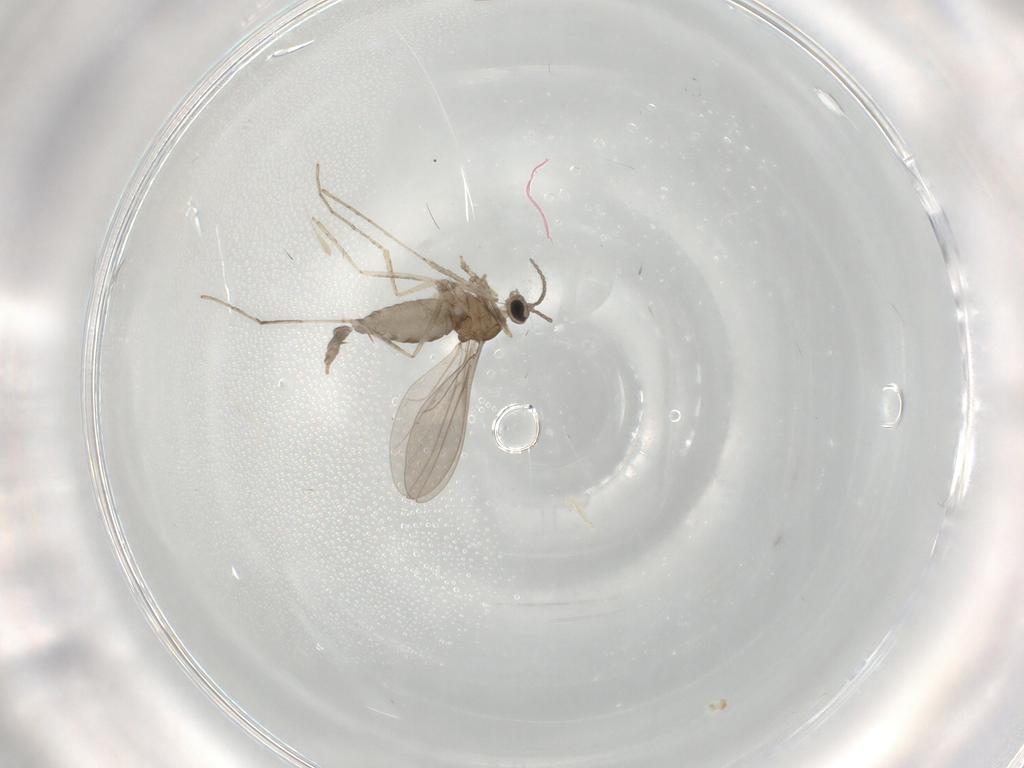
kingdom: Animalia
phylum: Arthropoda
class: Insecta
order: Diptera
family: Cecidomyiidae
